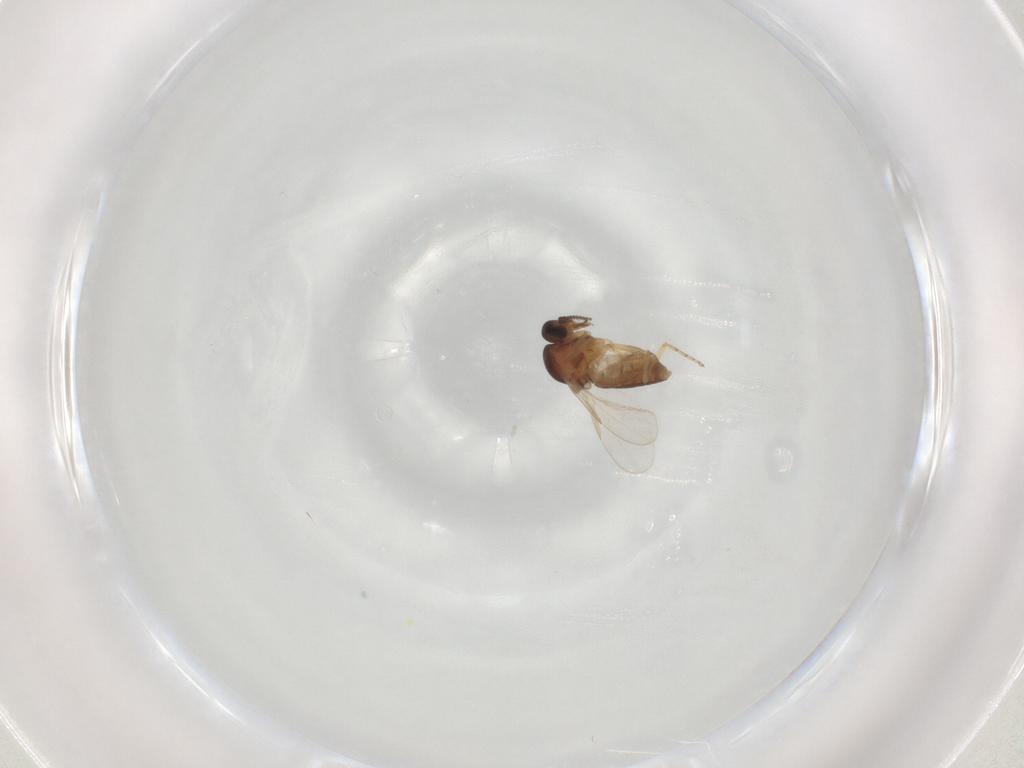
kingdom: Animalia
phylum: Arthropoda
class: Insecta
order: Diptera
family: Ceratopogonidae
